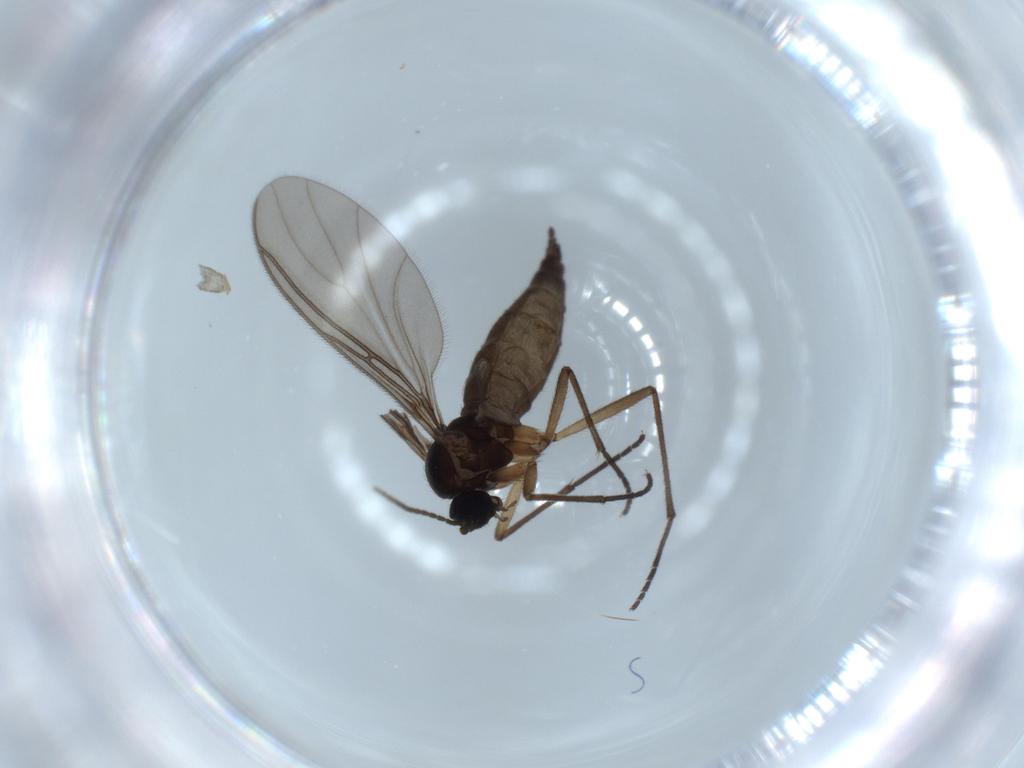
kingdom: Animalia
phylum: Arthropoda
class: Insecta
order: Diptera
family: Sciaridae
